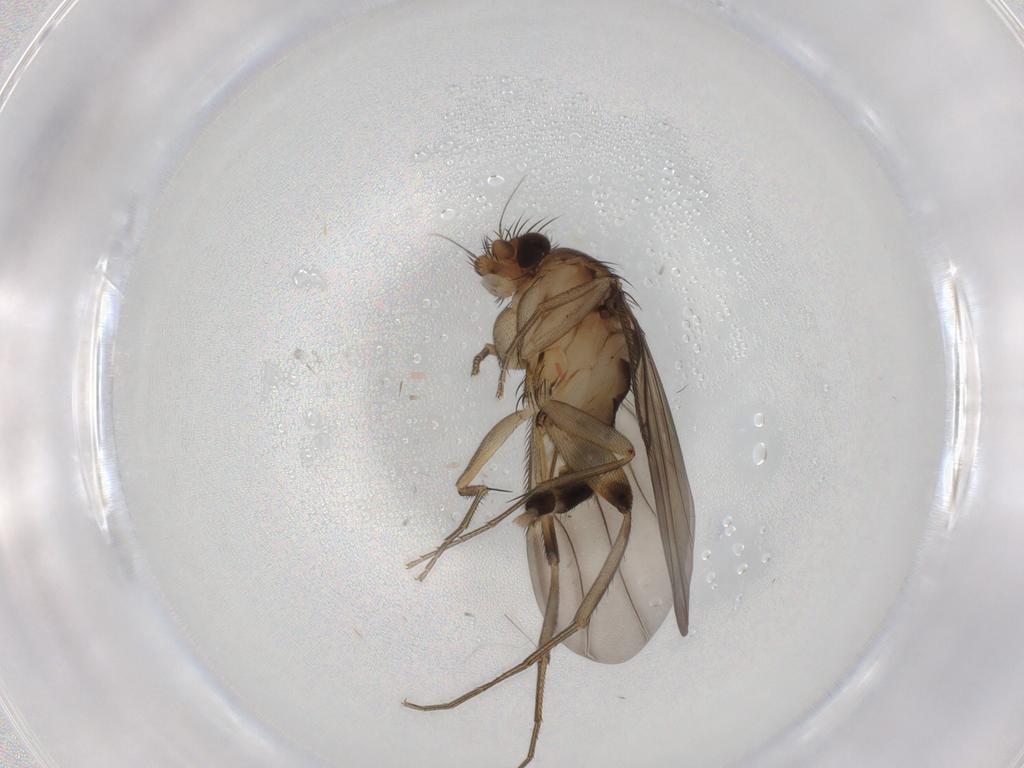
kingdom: Animalia
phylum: Arthropoda
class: Insecta
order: Diptera
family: Phoridae
